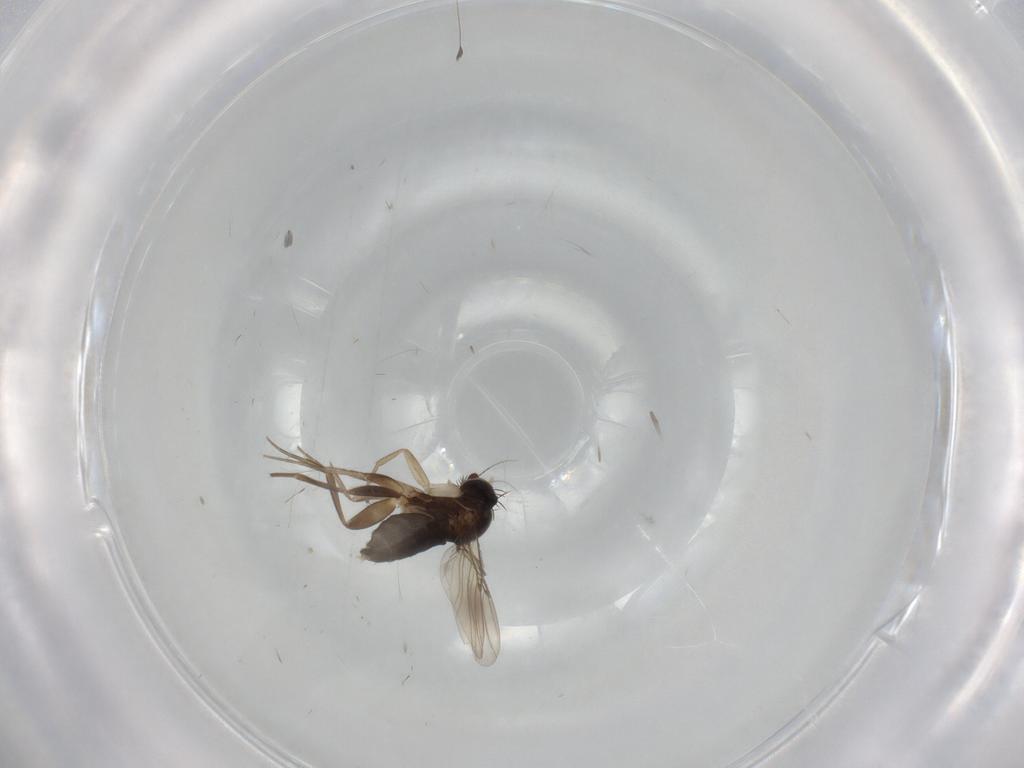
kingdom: Animalia
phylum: Arthropoda
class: Insecta
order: Diptera
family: Phoridae
